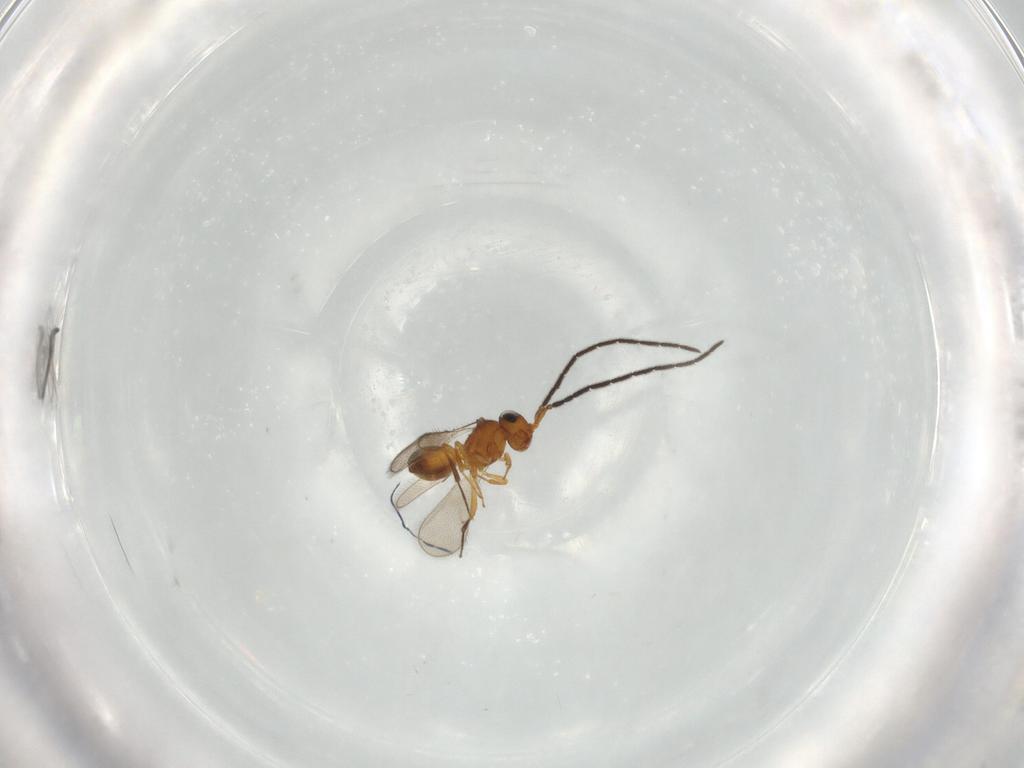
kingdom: Animalia
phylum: Arthropoda
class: Insecta
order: Hymenoptera
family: Scelionidae
